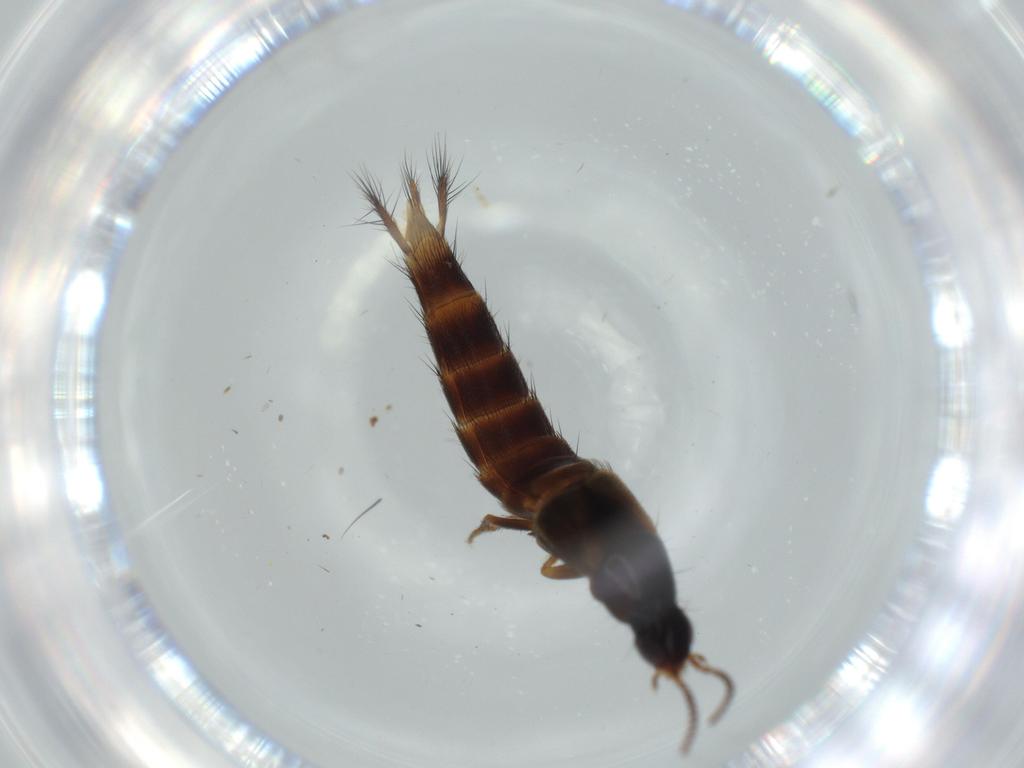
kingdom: Animalia
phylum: Arthropoda
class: Insecta
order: Coleoptera
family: Staphylinidae
